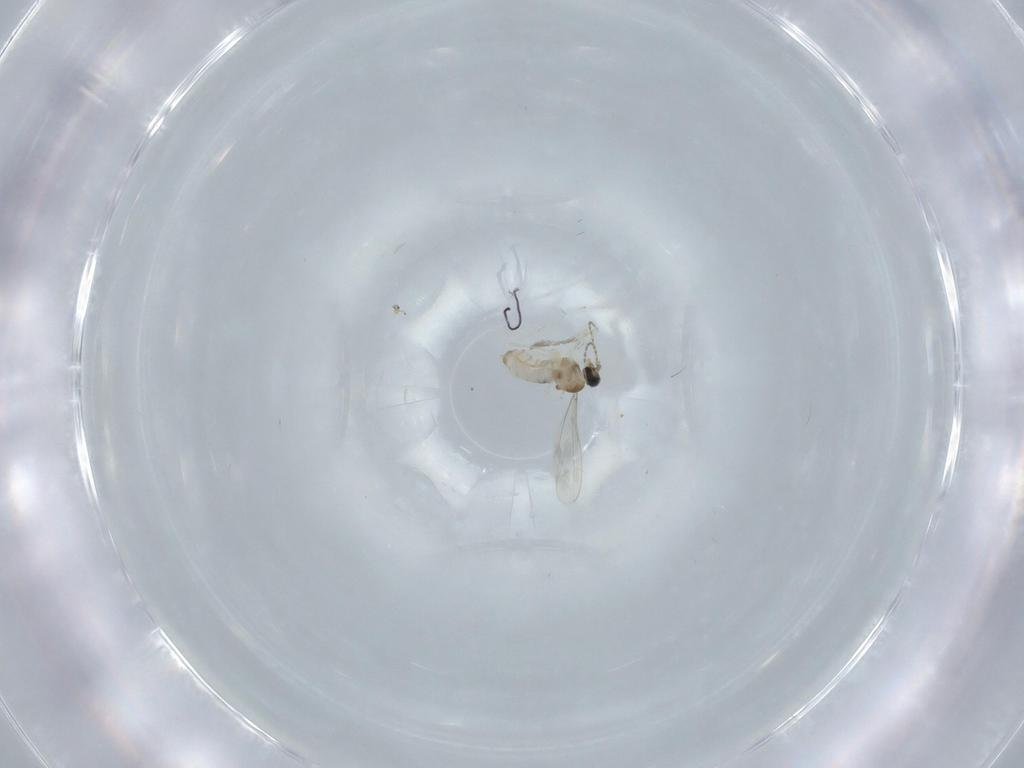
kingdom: Animalia
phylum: Arthropoda
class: Insecta
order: Diptera
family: Cecidomyiidae
